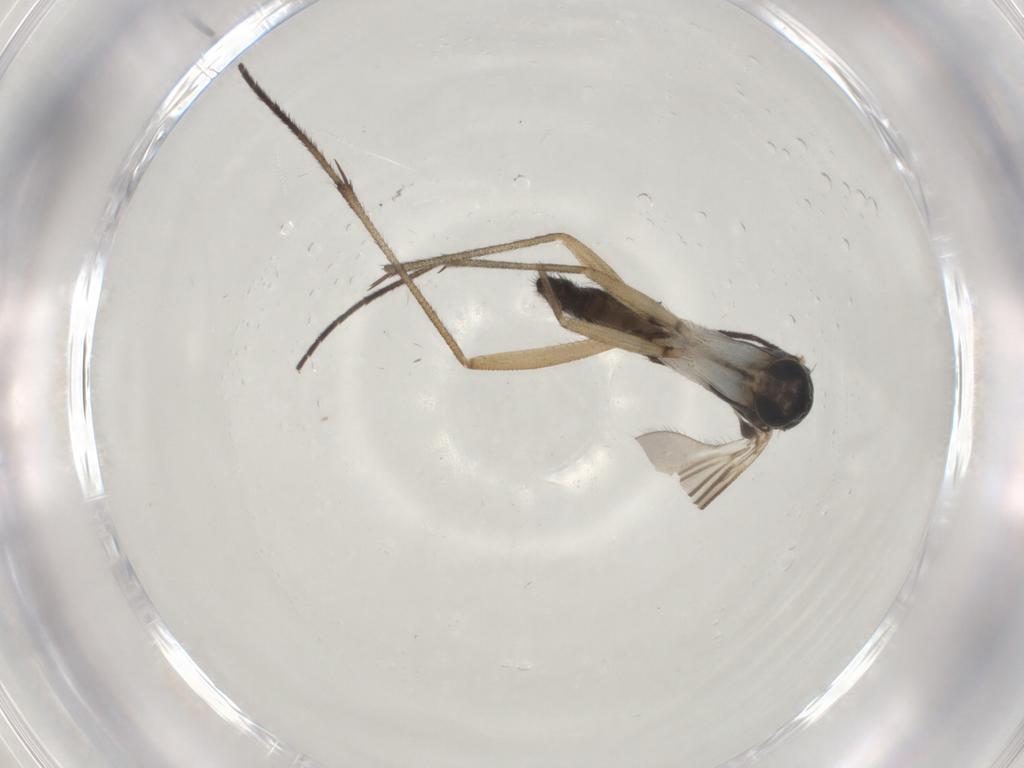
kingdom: Animalia
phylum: Arthropoda
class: Insecta
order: Diptera
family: Sciaridae
